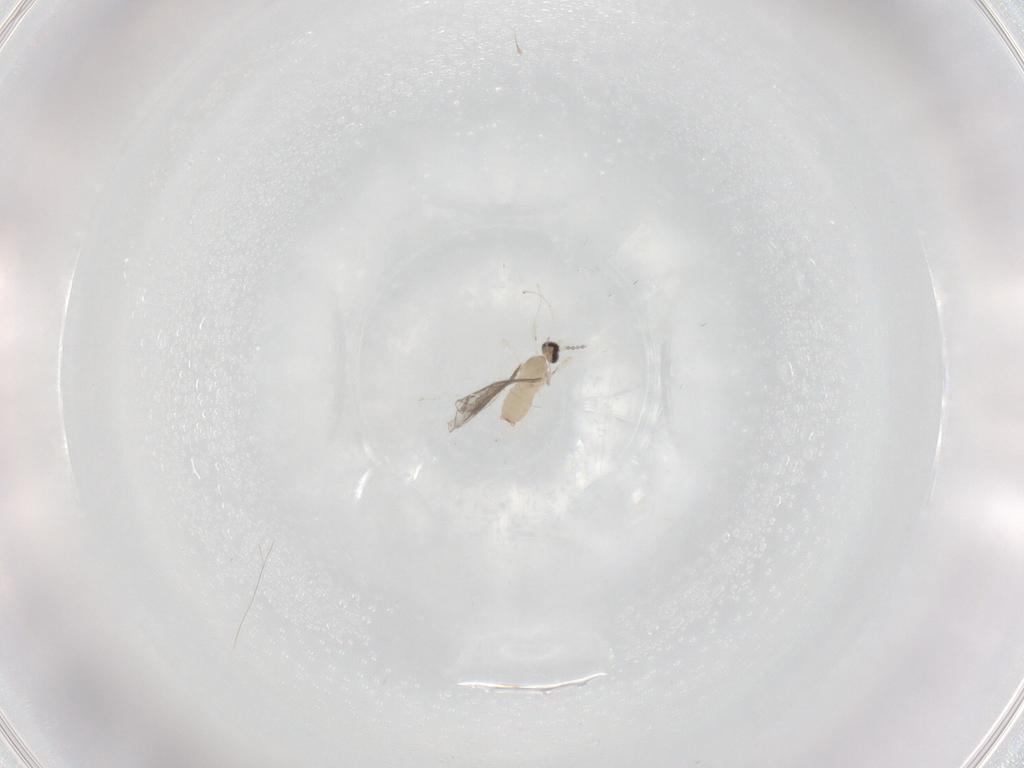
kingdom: Animalia
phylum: Arthropoda
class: Insecta
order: Diptera
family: Cecidomyiidae
